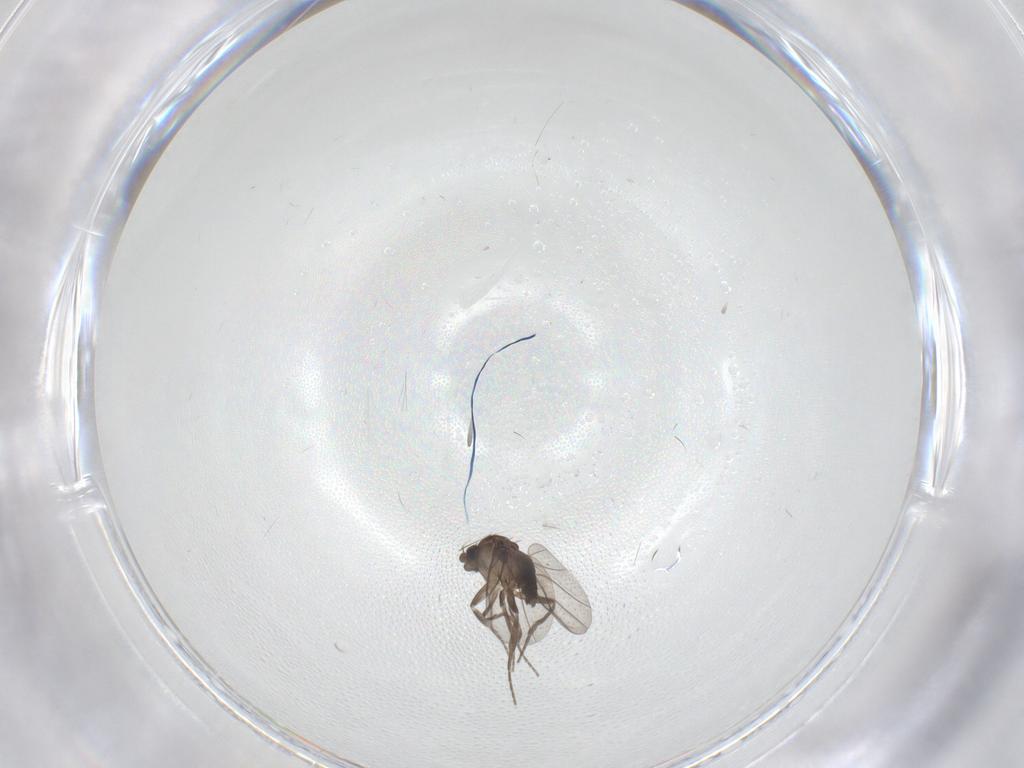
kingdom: Animalia
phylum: Arthropoda
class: Insecta
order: Diptera
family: Phoridae
